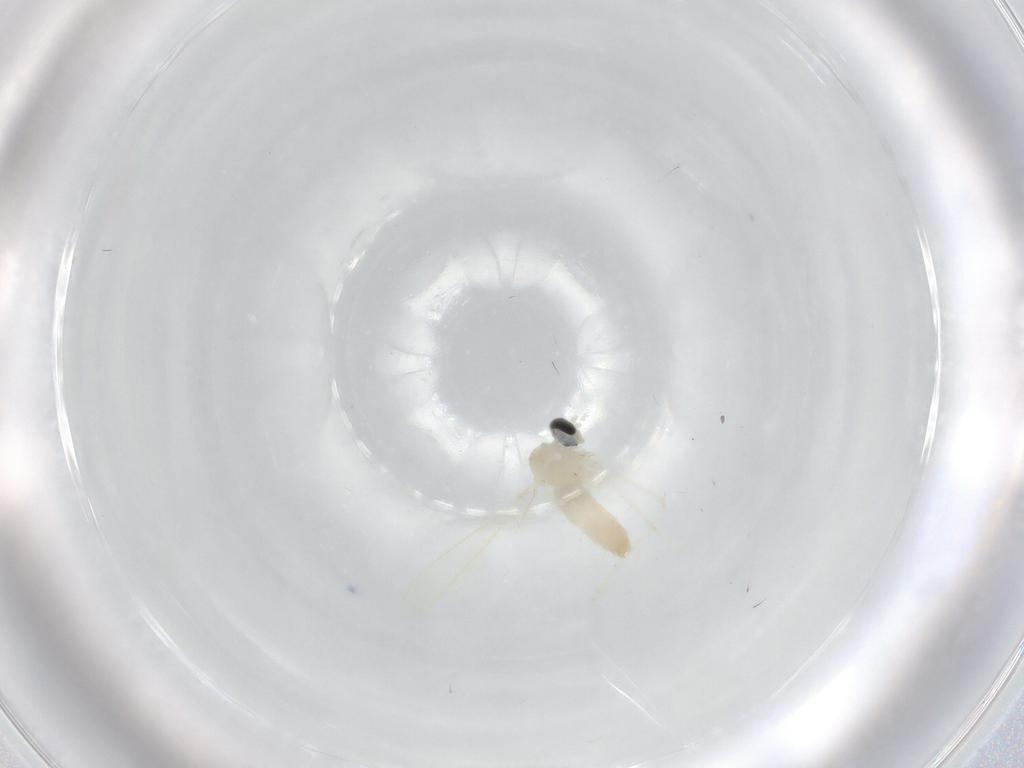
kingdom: Animalia
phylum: Arthropoda
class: Insecta
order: Diptera
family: Cecidomyiidae
